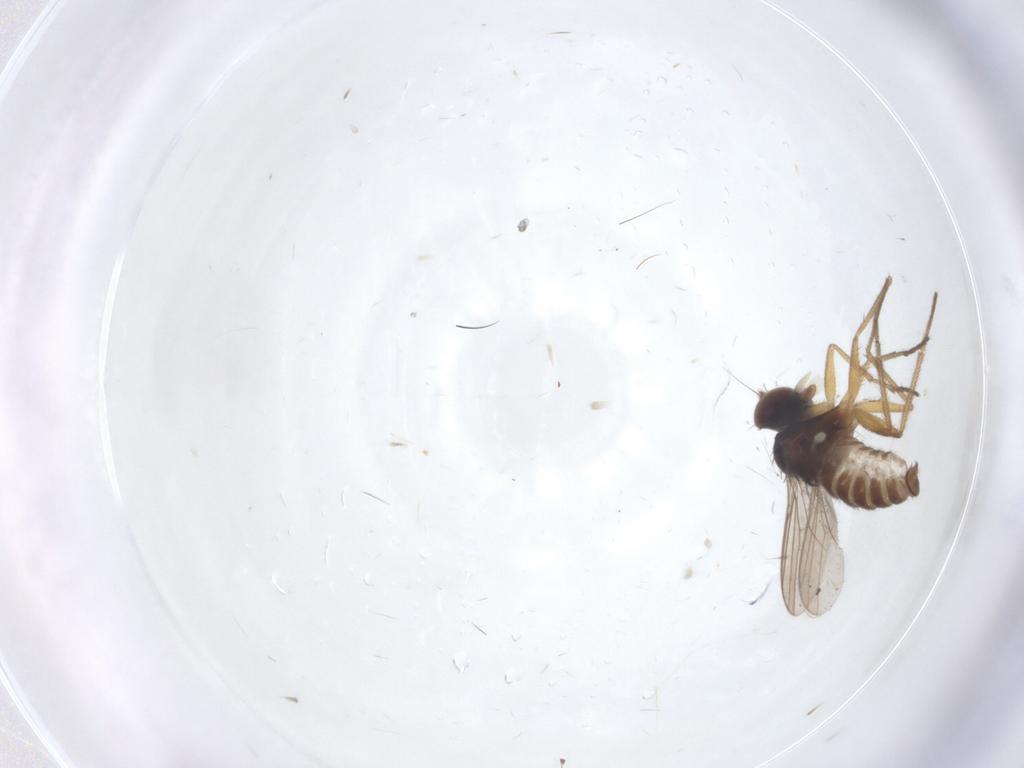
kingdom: Animalia
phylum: Arthropoda
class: Insecta
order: Diptera
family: Dolichopodidae
